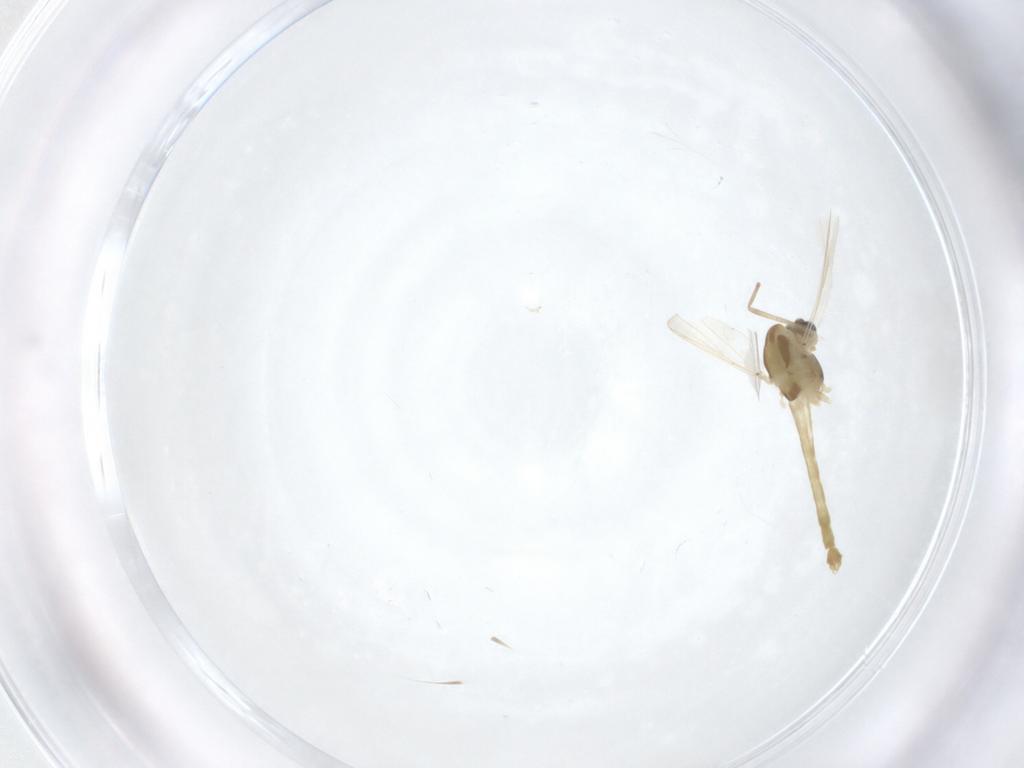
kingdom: Animalia
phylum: Arthropoda
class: Insecta
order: Diptera
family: Chironomidae
